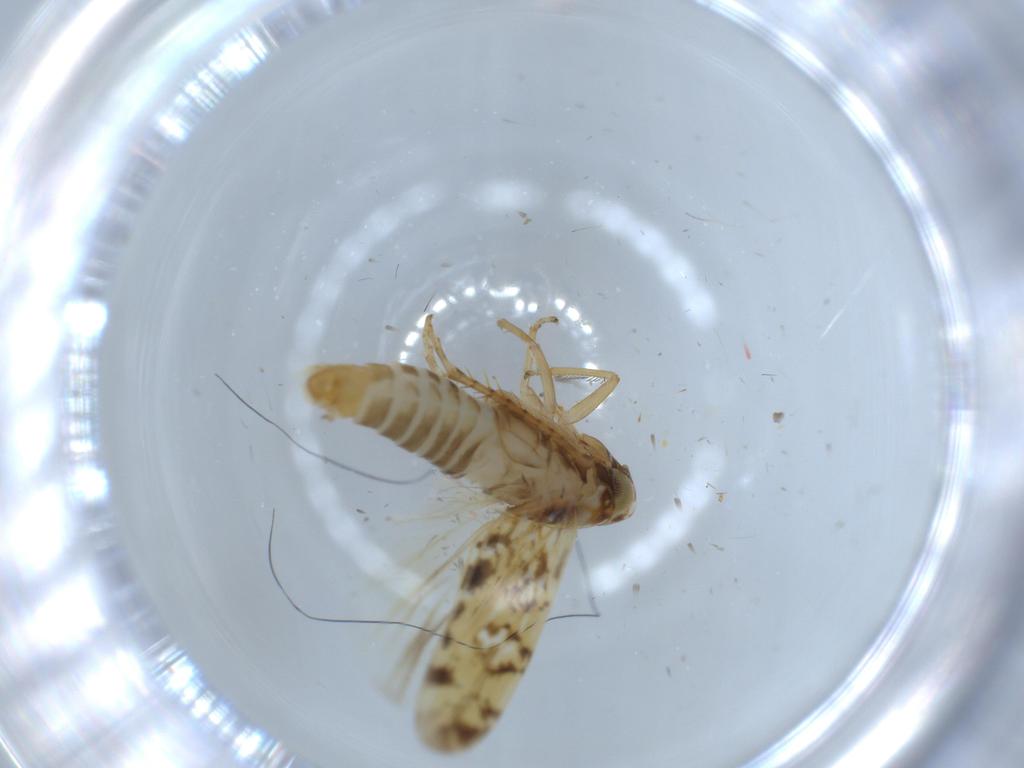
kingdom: Animalia
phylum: Arthropoda
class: Insecta
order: Hemiptera
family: Cicadellidae
